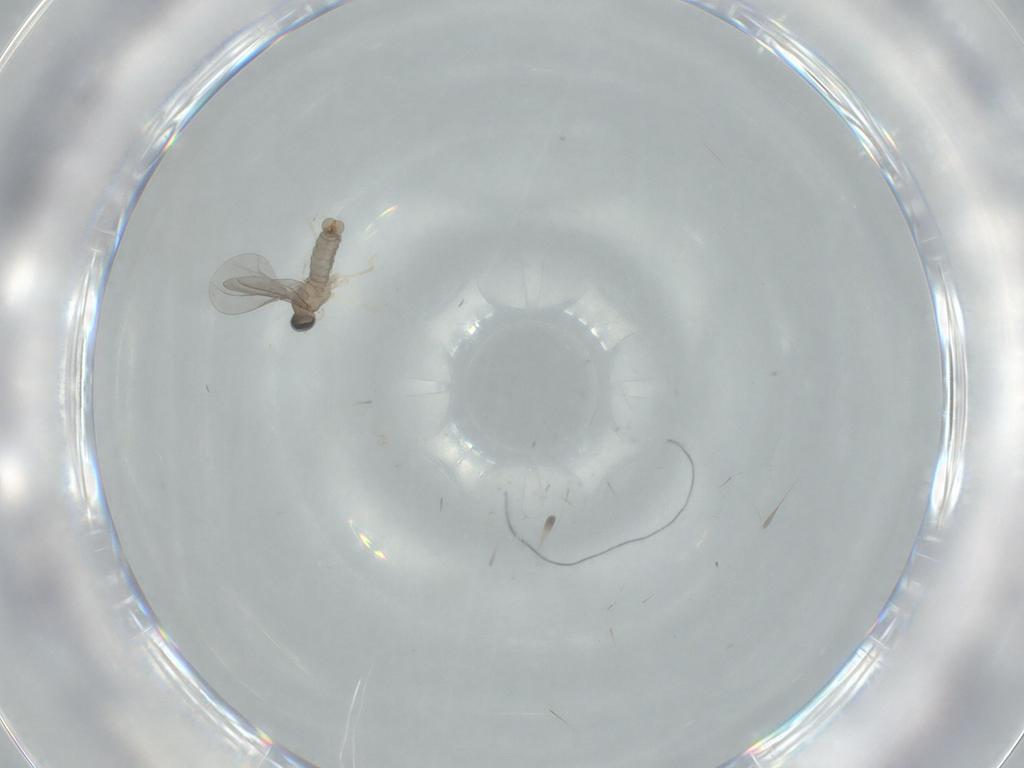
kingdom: Animalia
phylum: Arthropoda
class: Insecta
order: Diptera
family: Cecidomyiidae
